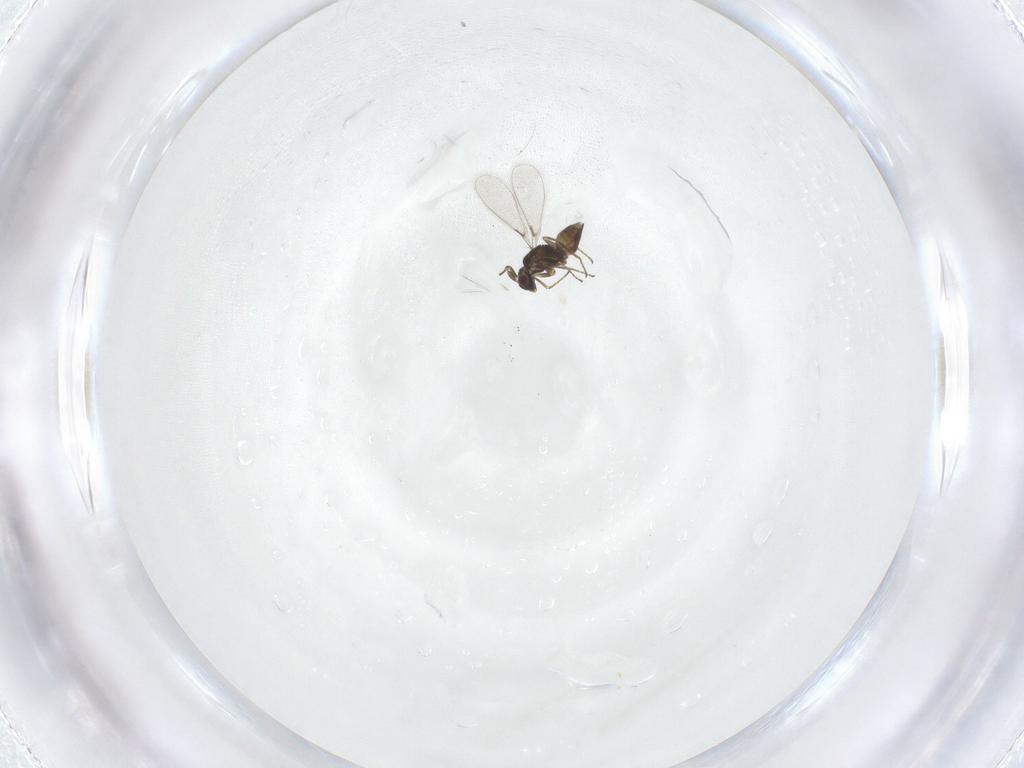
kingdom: Animalia
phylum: Arthropoda
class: Insecta
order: Hymenoptera
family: Mymaridae
